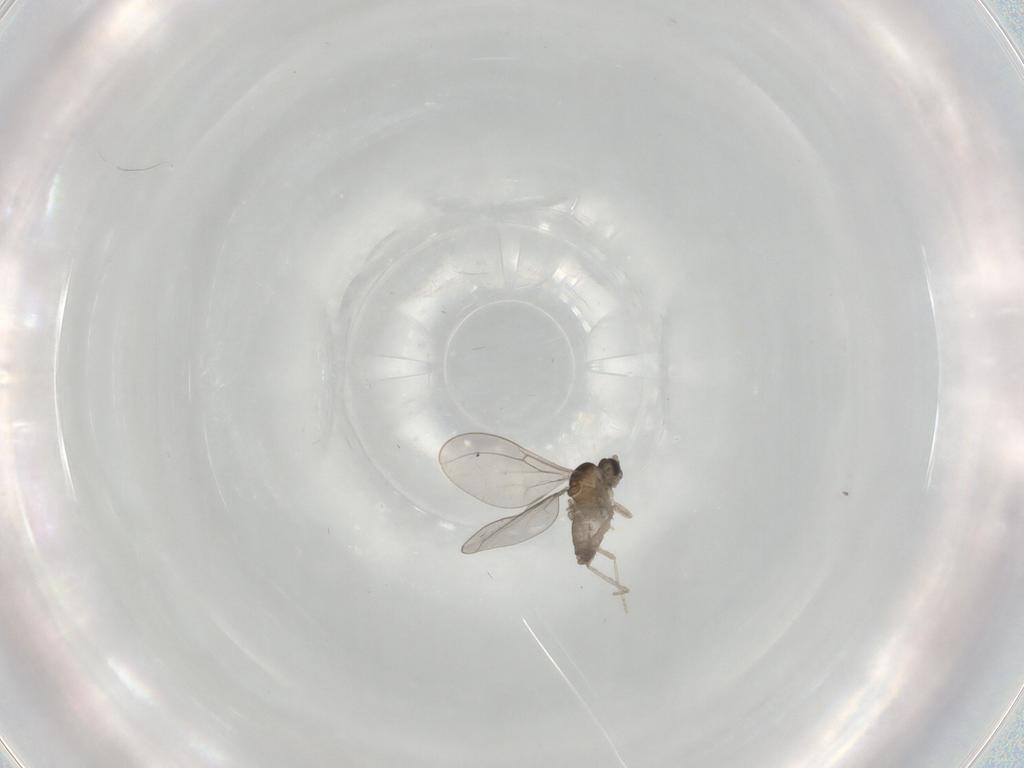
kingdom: Animalia
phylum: Arthropoda
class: Insecta
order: Diptera
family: Cecidomyiidae
